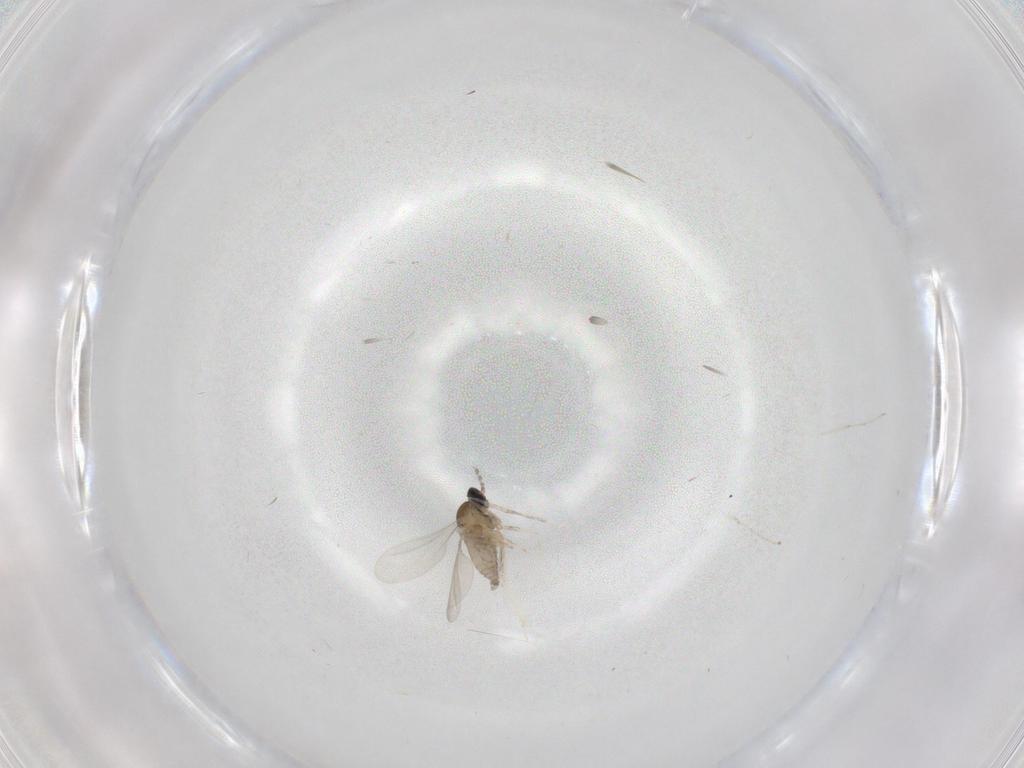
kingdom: Animalia
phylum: Arthropoda
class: Insecta
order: Diptera
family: Cecidomyiidae
